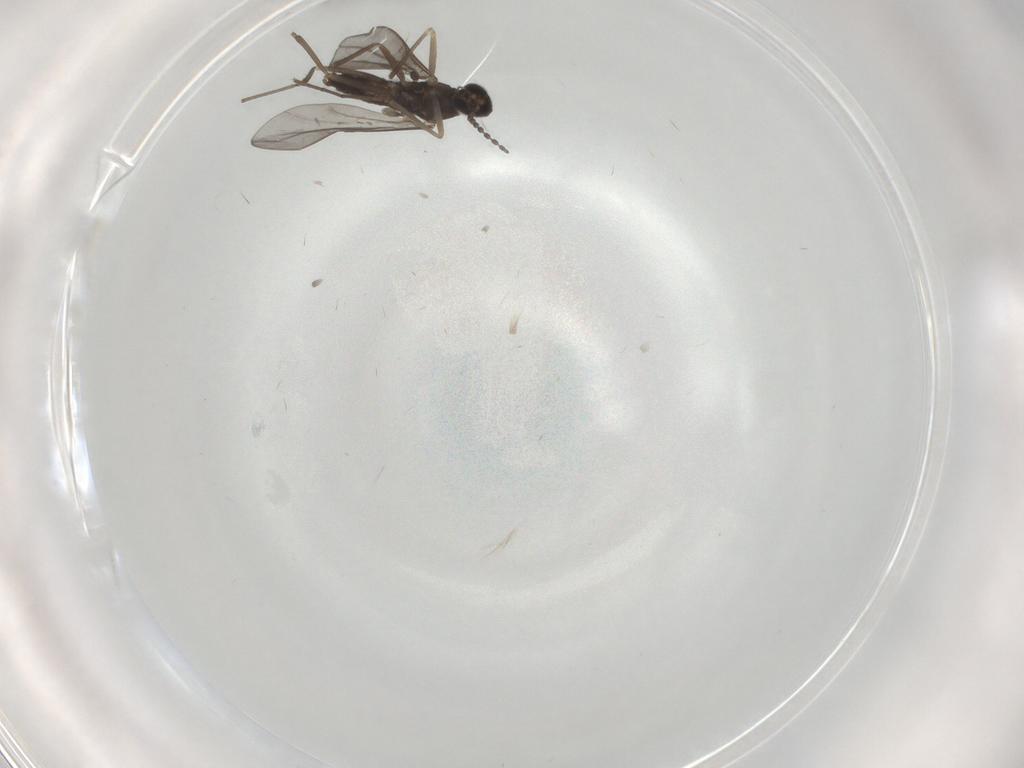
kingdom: Animalia
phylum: Arthropoda
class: Insecta
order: Diptera
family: Cecidomyiidae
